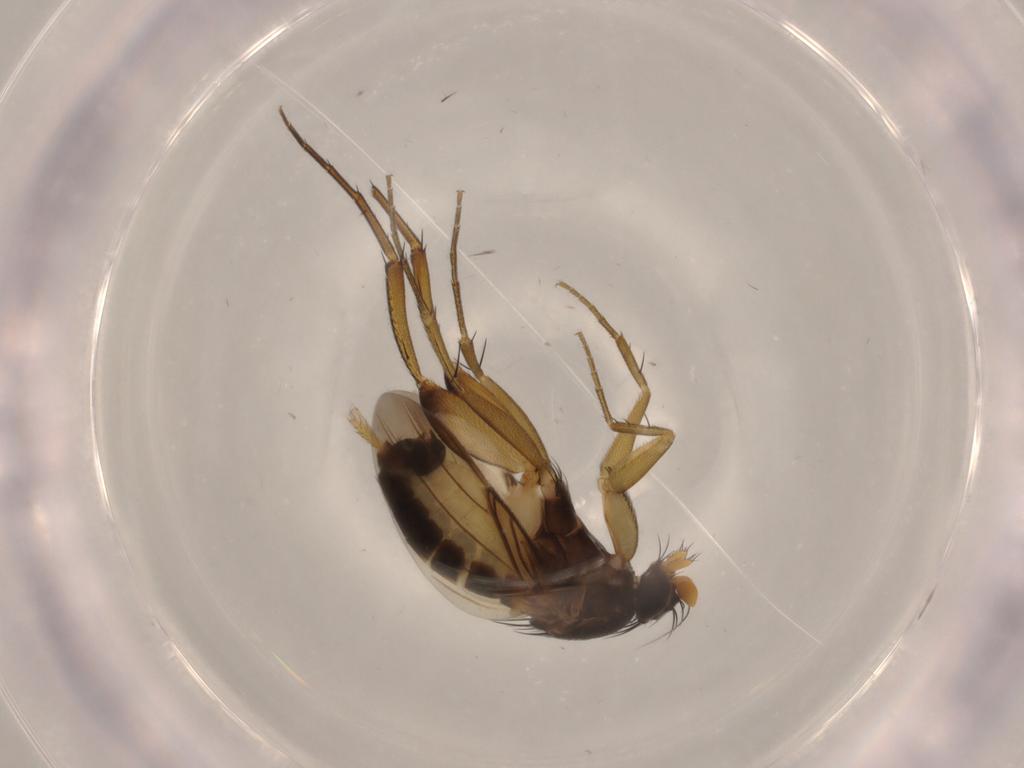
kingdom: Animalia
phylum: Arthropoda
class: Insecta
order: Diptera
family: Phoridae
